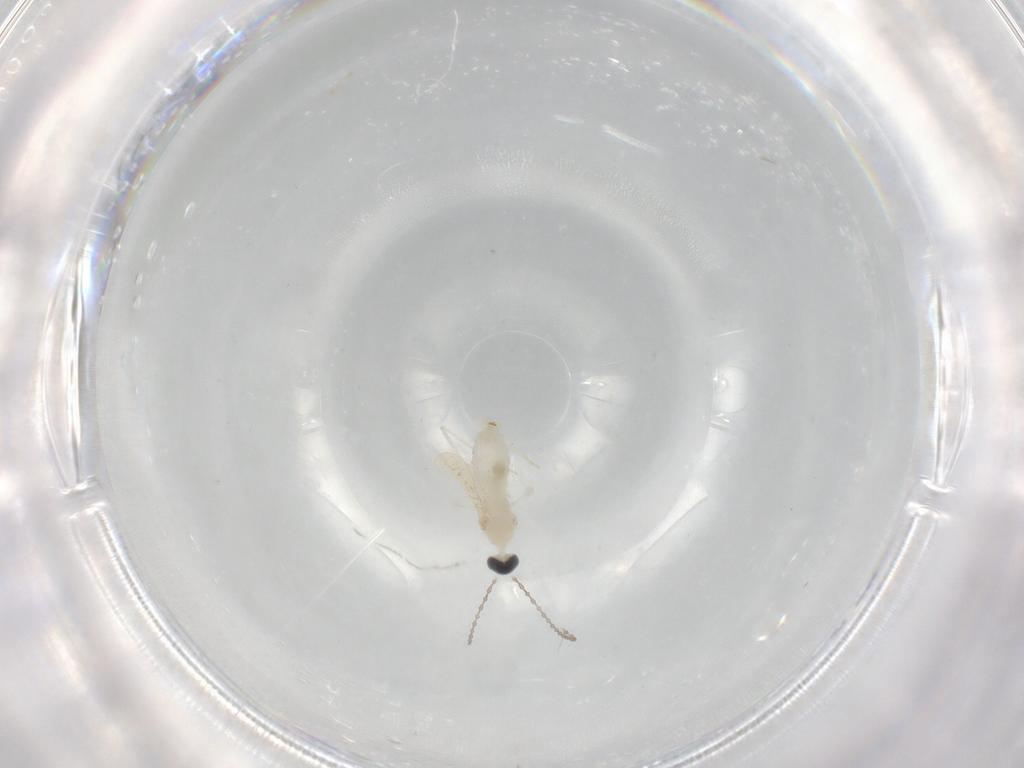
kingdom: Animalia
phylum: Arthropoda
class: Insecta
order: Diptera
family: Cecidomyiidae
